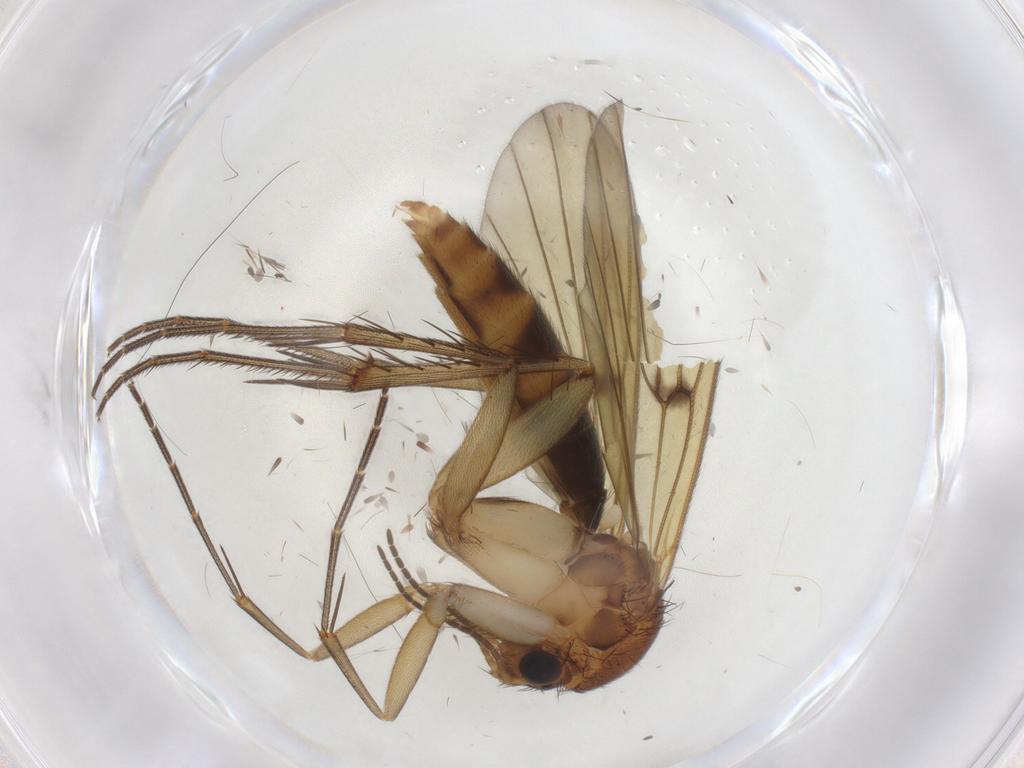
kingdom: Animalia
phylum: Arthropoda
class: Insecta
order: Diptera
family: Mycetophilidae
